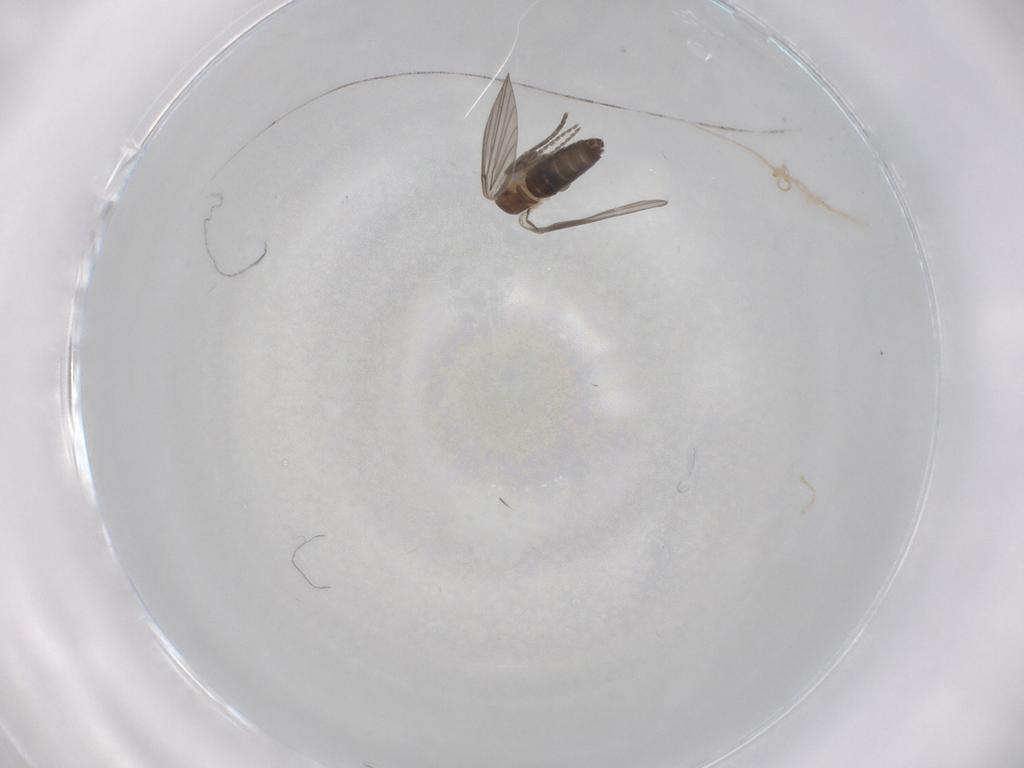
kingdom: Animalia
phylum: Arthropoda
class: Insecta
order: Diptera
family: Psychodidae
